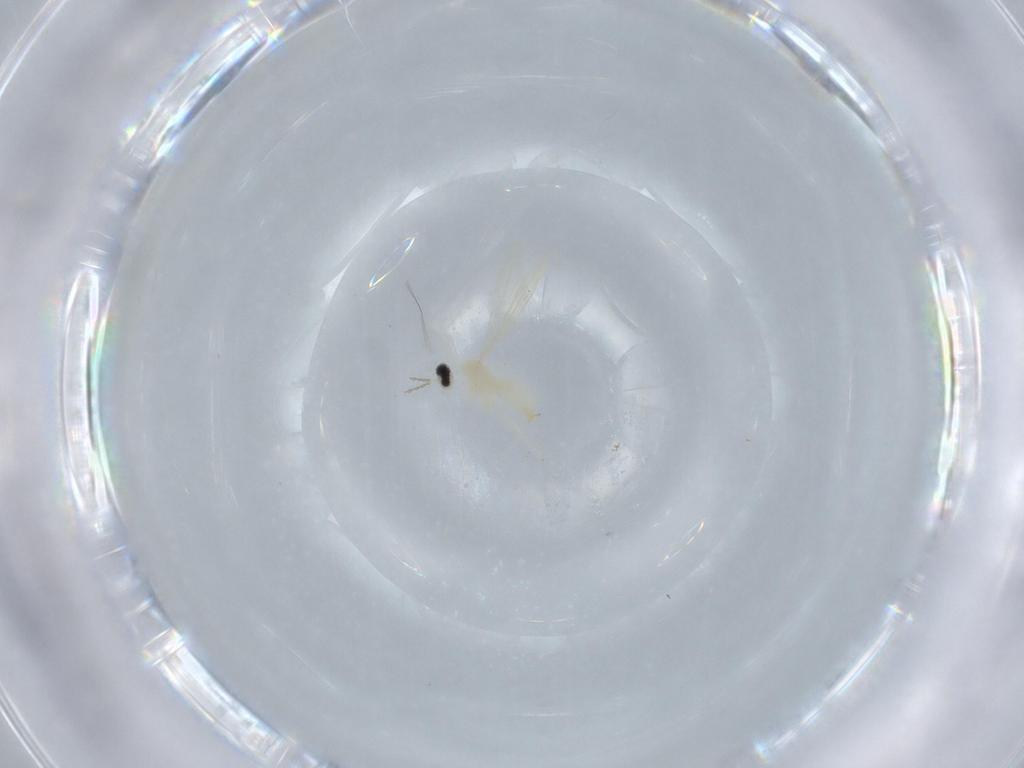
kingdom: Animalia
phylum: Arthropoda
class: Insecta
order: Diptera
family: Cecidomyiidae
